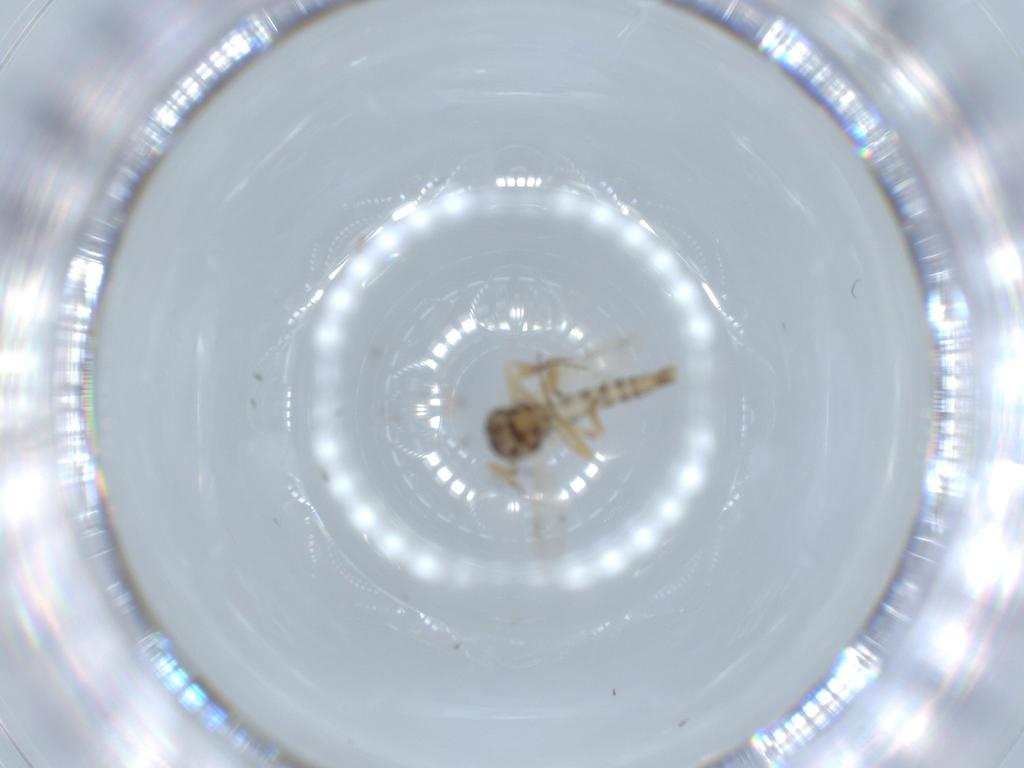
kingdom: Animalia
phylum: Arthropoda
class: Insecta
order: Diptera
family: Ceratopogonidae
